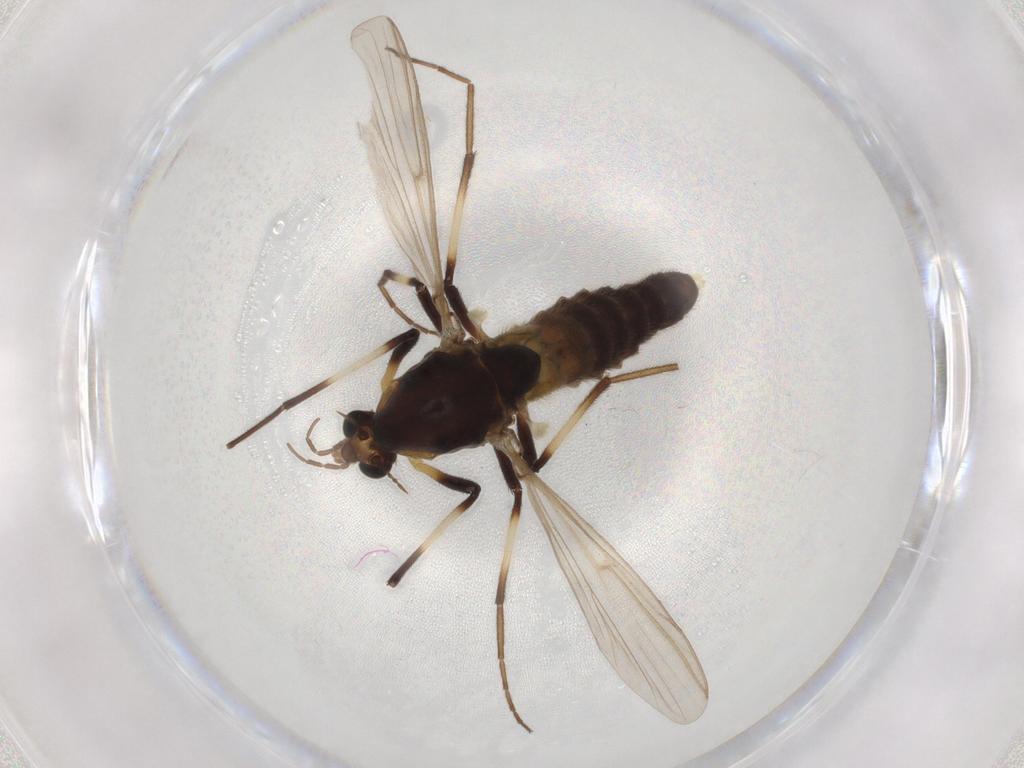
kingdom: Animalia
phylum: Arthropoda
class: Insecta
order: Diptera
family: Drosophilidae
